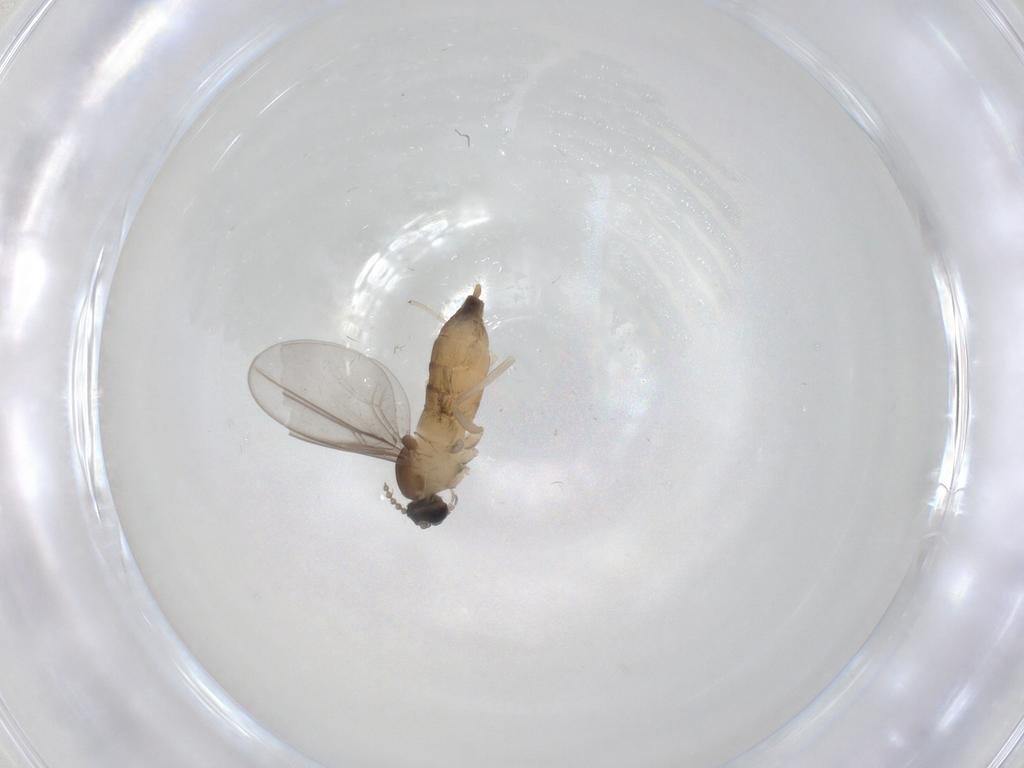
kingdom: Animalia
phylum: Arthropoda
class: Insecta
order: Diptera
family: Cecidomyiidae
